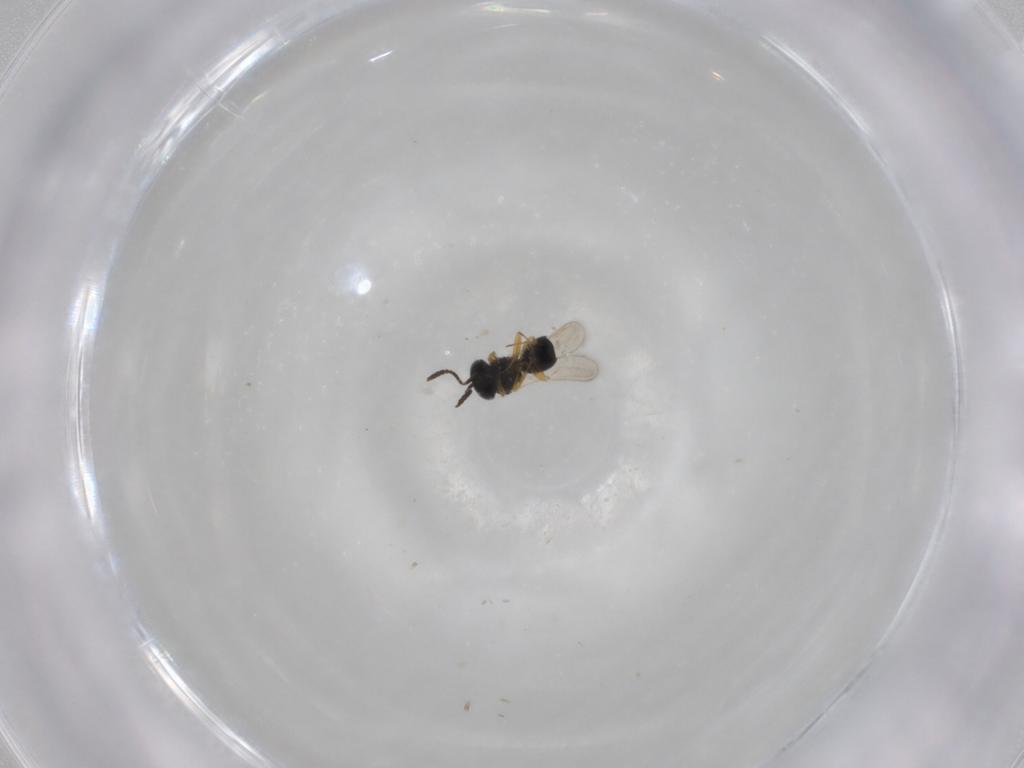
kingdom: Animalia
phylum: Arthropoda
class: Insecta
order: Hymenoptera
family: Scelionidae
